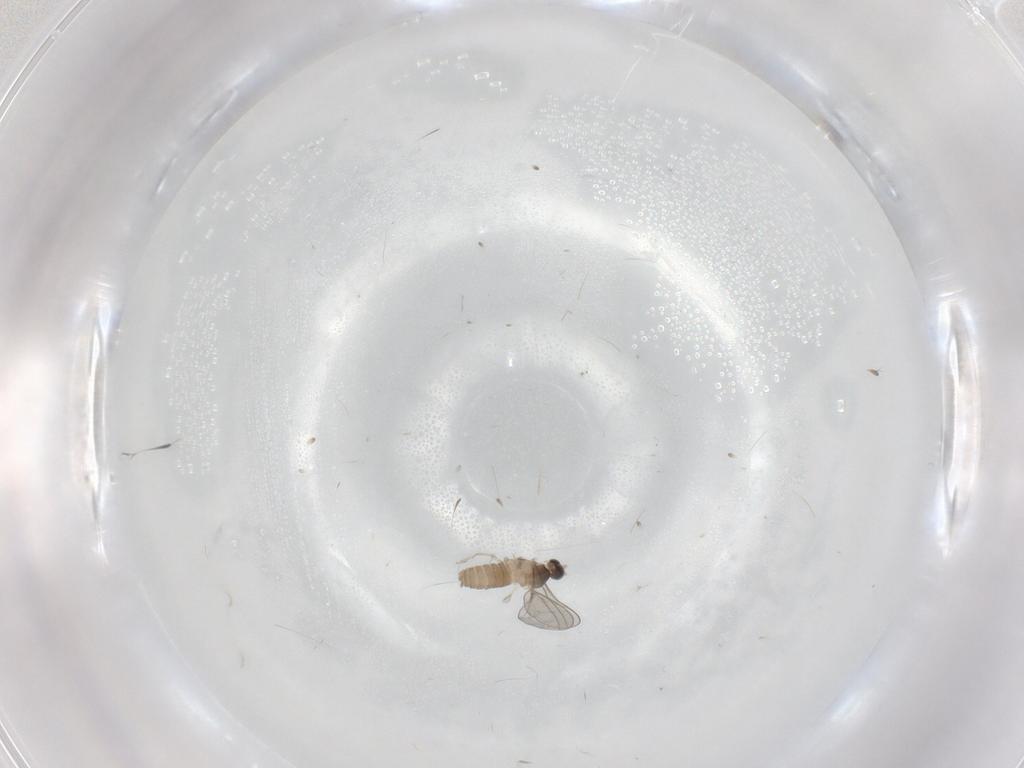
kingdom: Animalia
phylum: Arthropoda
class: Insecta
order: Diptera
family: Cecidomyiidae
